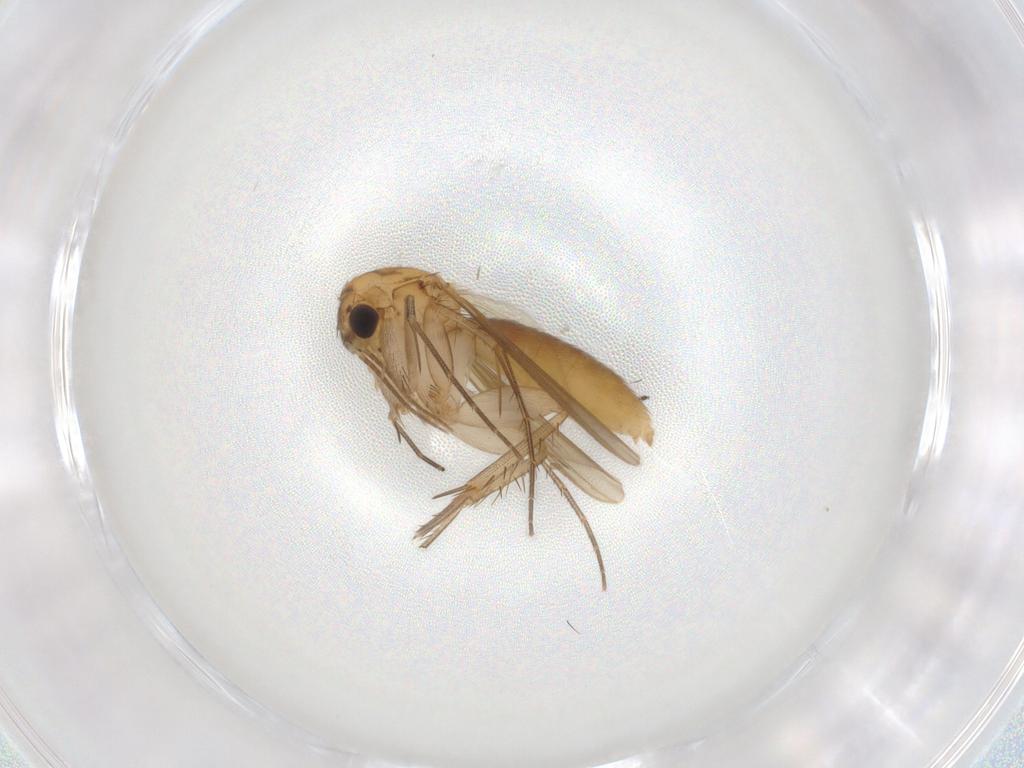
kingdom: Animalia
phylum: Arthropoda
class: Insecta
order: Diptera
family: Mycetophilidae
